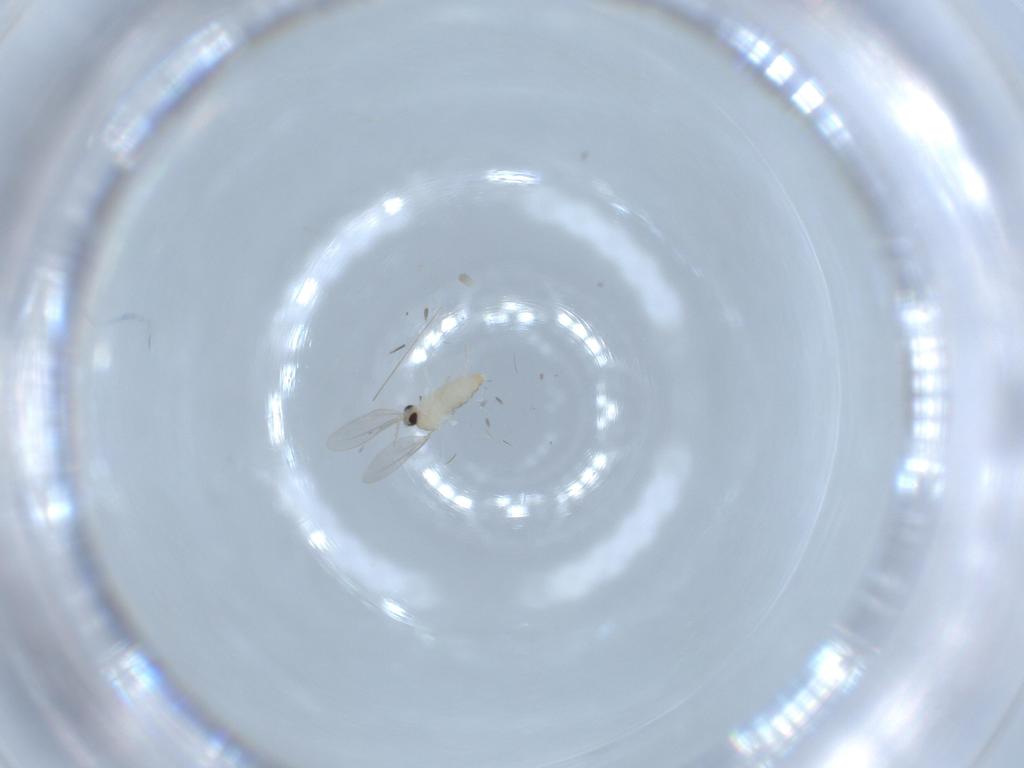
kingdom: Animalia
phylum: Arthropoda
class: Insecta
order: Diptera
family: Cecidomyiidae
